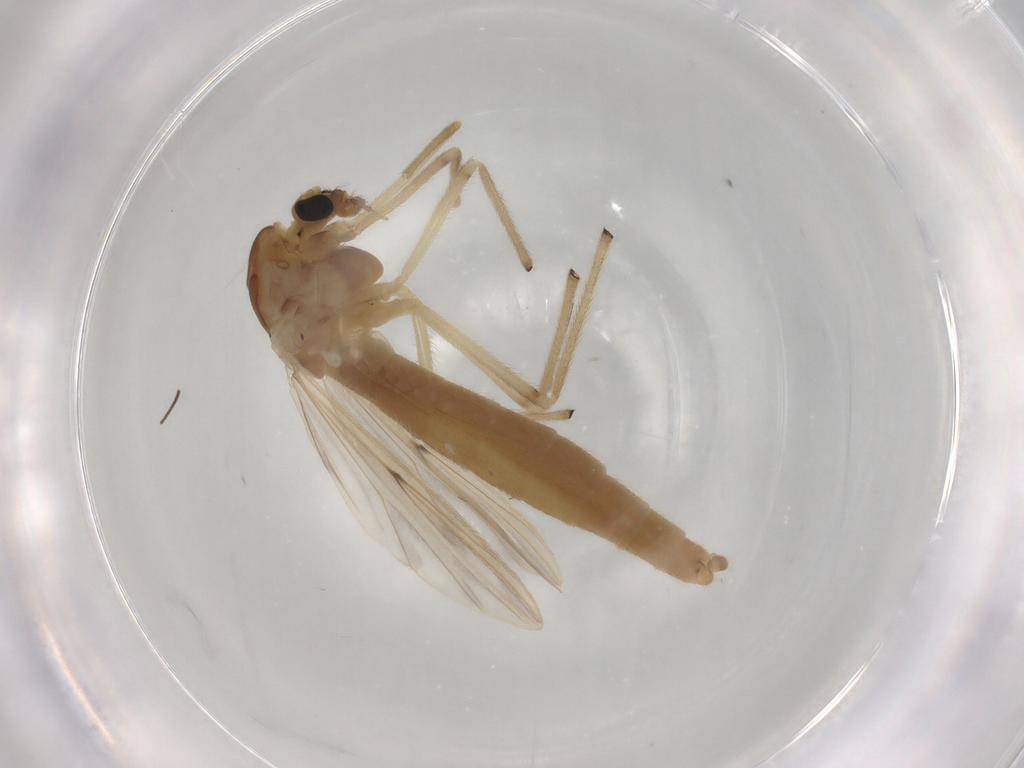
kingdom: Animalia
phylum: Arthropoda
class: Insecta
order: Diptera
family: Chironomidae
